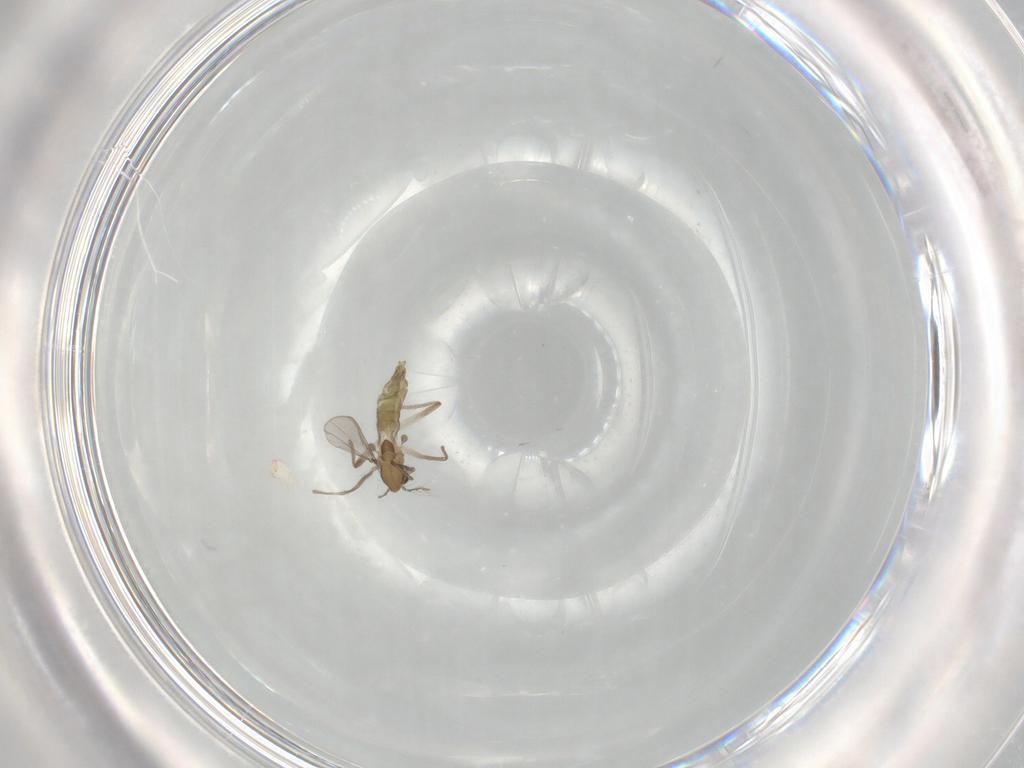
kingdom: Animalia
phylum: Arthropoda
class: Insecta
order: Diptera
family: Chironomidae
